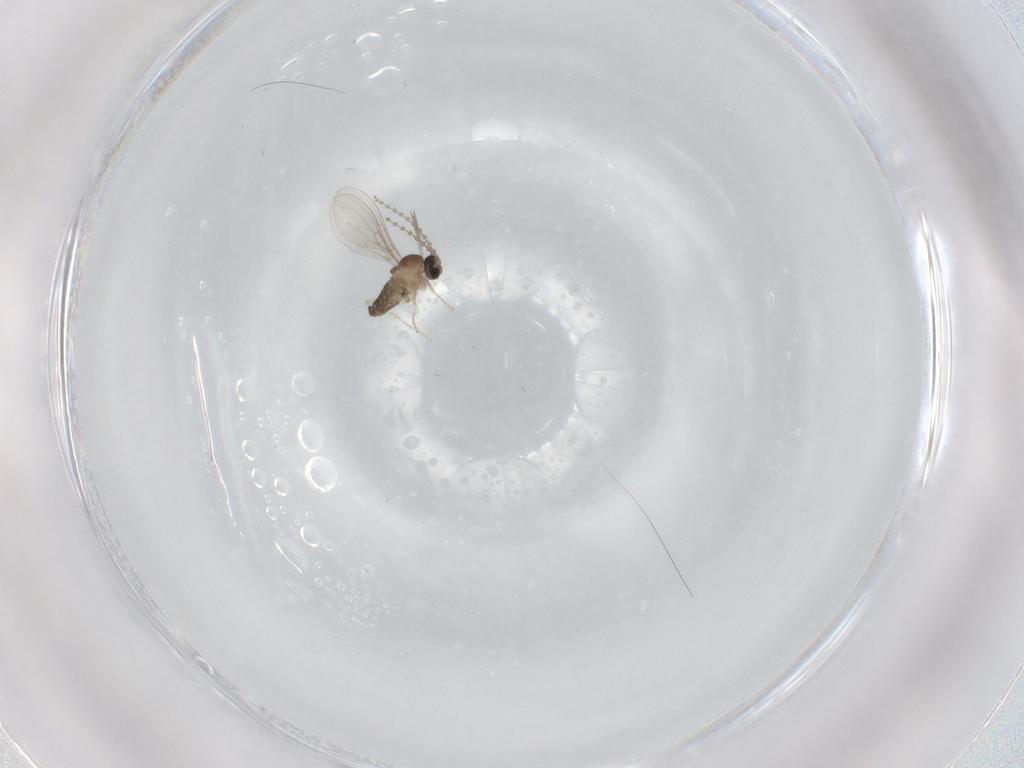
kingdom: Animalia
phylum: Arthropoda
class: Insecta
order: Diptera
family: Cecidomyiidae
